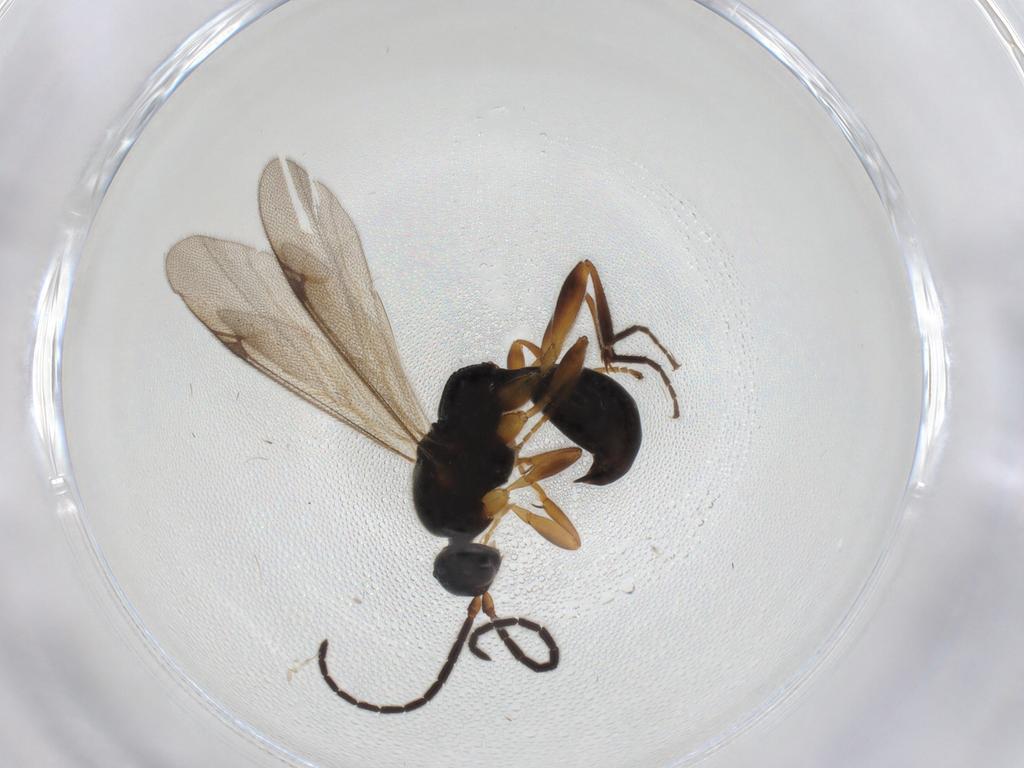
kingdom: Animalia
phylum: Arthropoda
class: Insecta
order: Hymenoptera
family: Proctotrupidae
